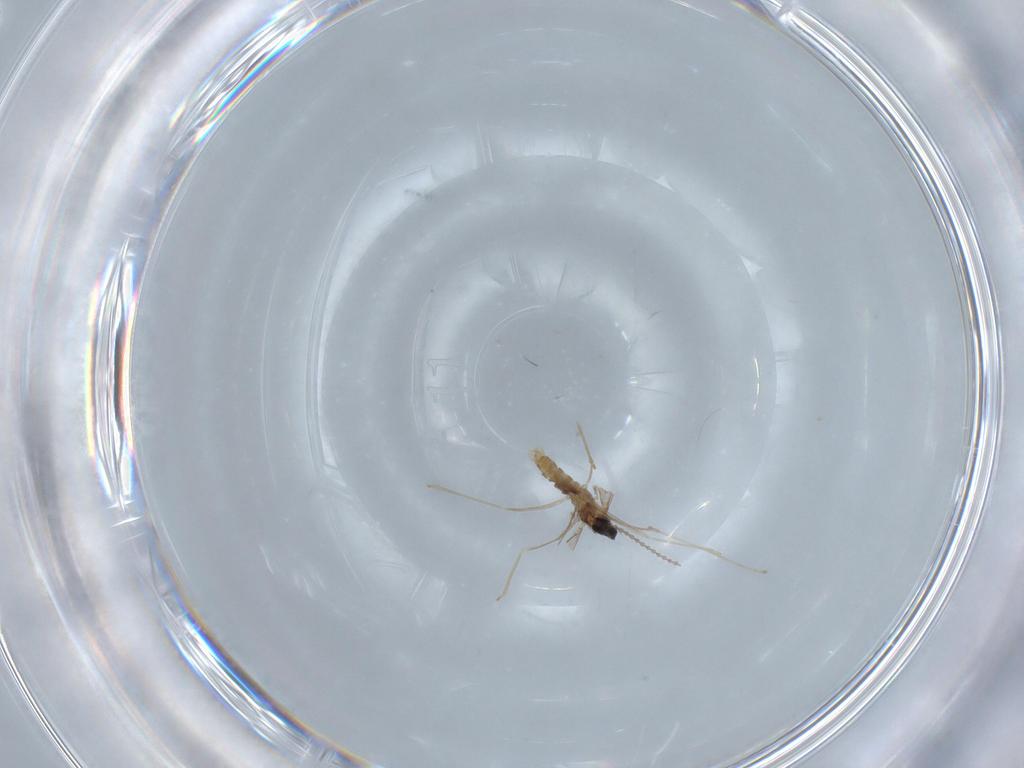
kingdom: Animalia
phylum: Arthropoda
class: Insecta
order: Diptera
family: Cecidomyiidae
